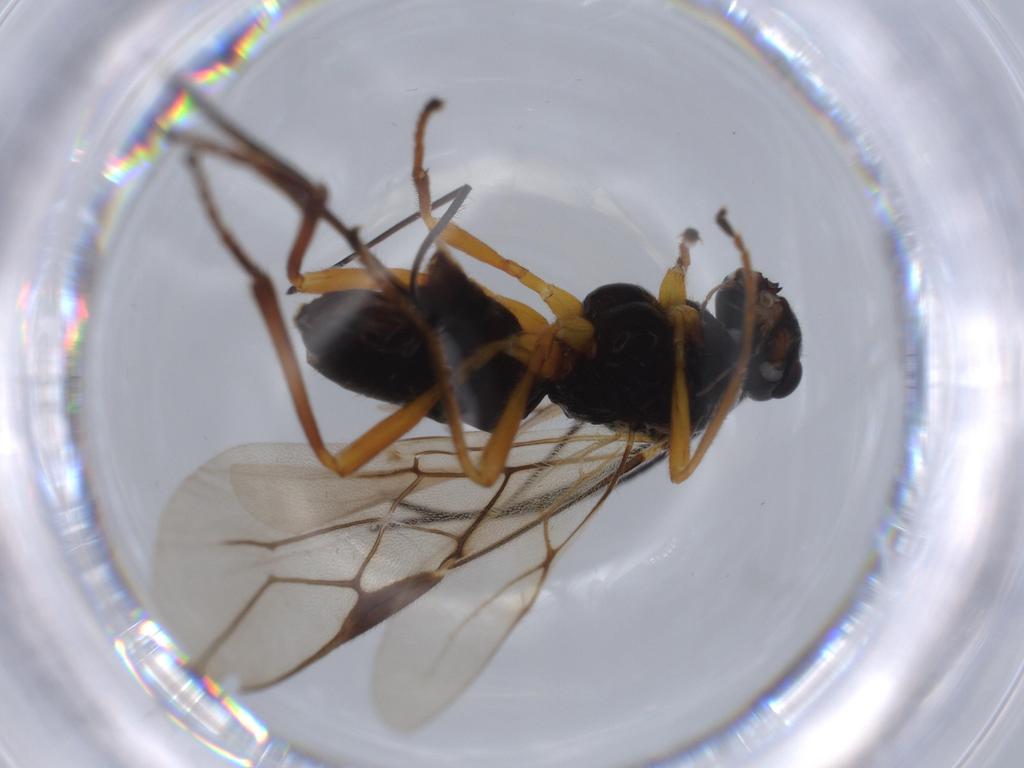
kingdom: Animalia
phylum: Arthropoda
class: Insecta
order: Hymenoptera
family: Braconidae
